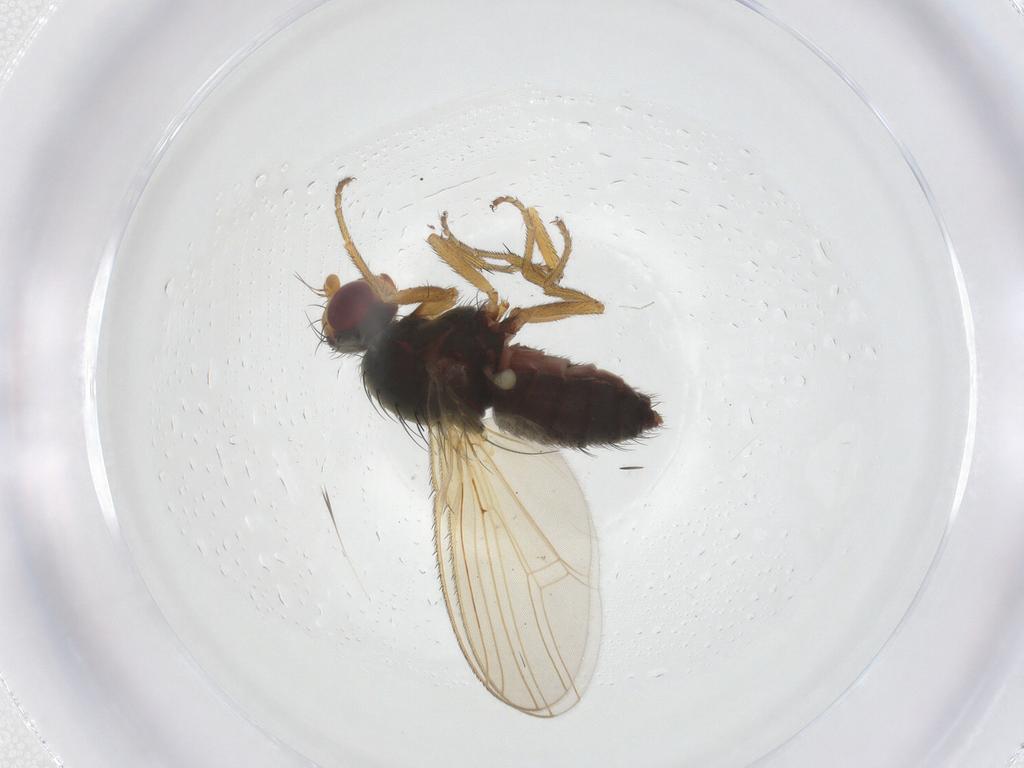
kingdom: Animalia
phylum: Arthropoda
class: Insecta
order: Diptera
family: Heleomyzidae
